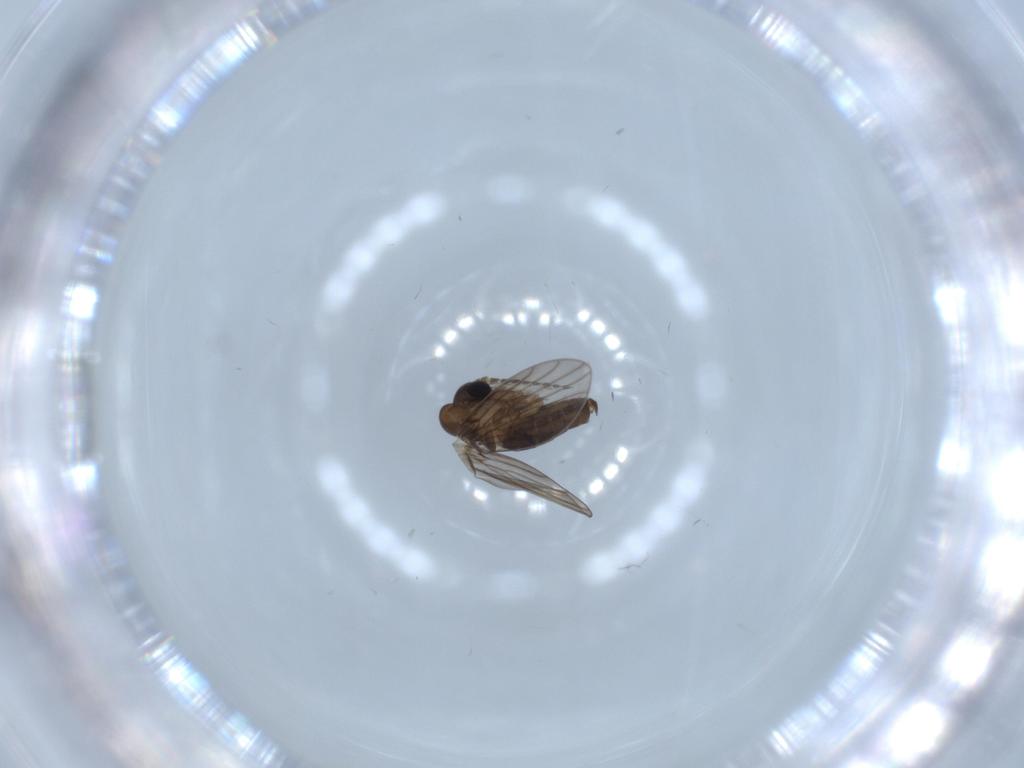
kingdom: Animalia
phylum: Arthropoda
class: Insecta
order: Diptera
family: Psychodidae
